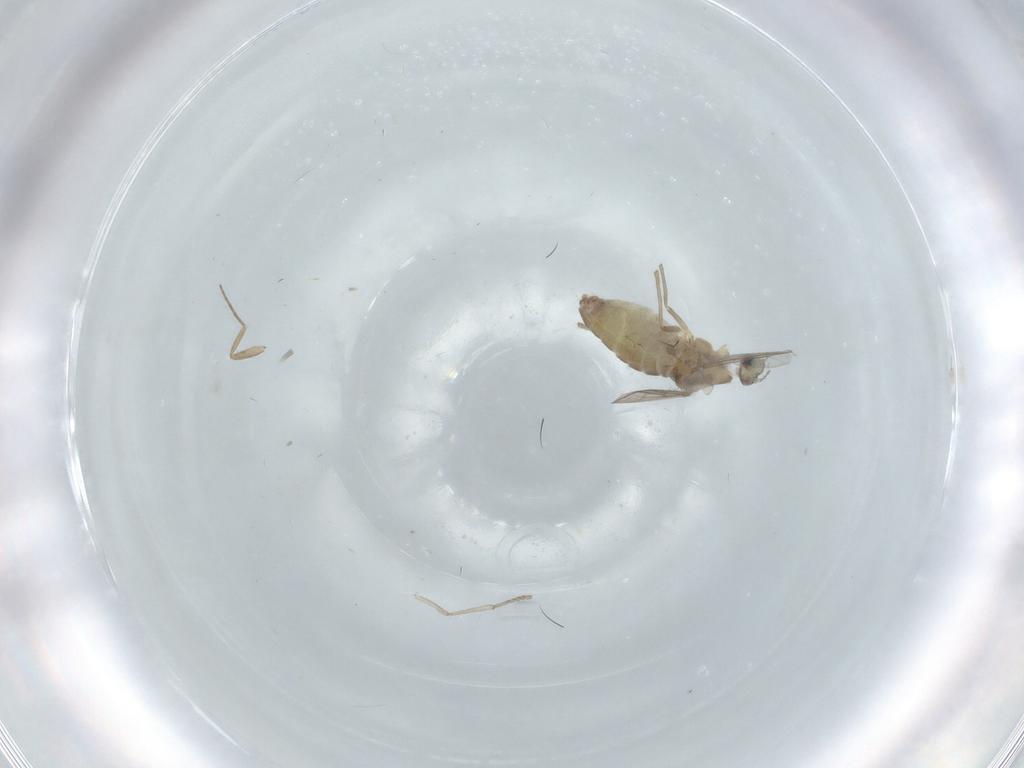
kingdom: Animalia
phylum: Arthropoda
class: Insecta
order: Diptera
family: Chironomidae
